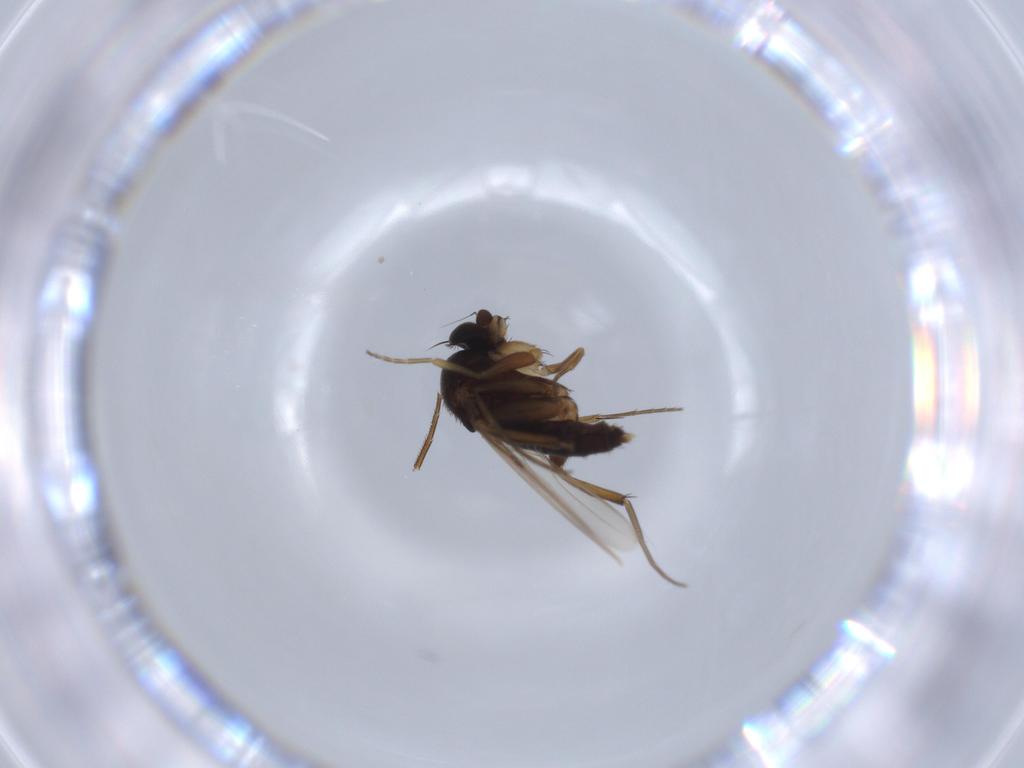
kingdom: Animalia
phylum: Arthropoda
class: Insecta
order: Diptera
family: Phoridae
